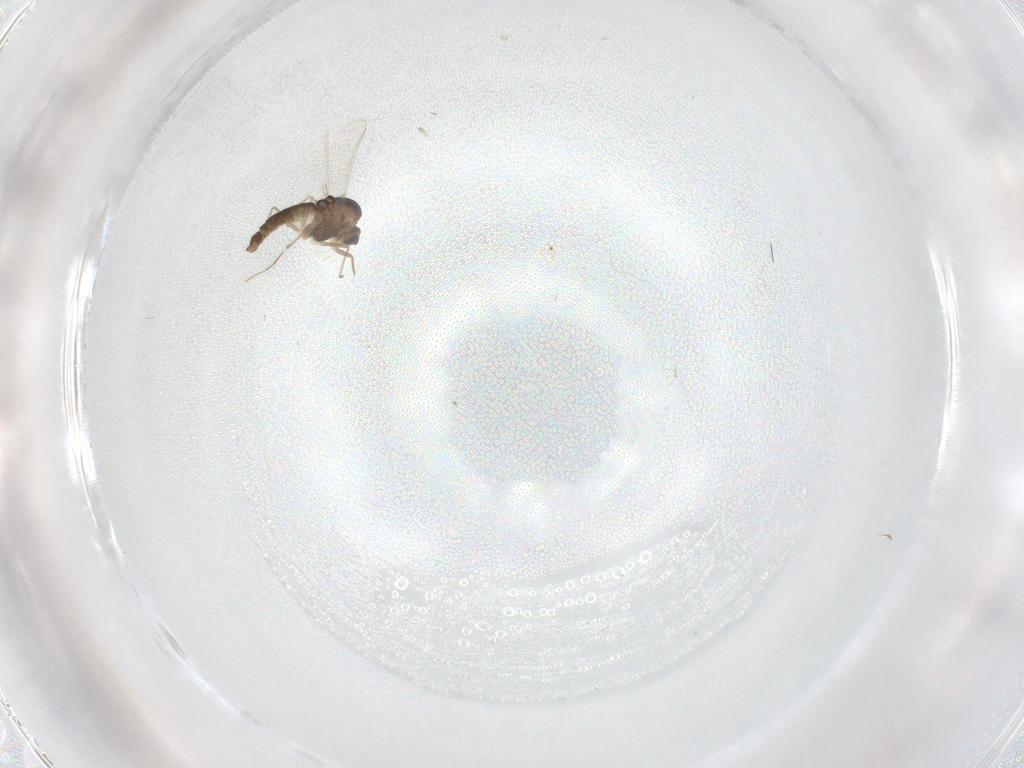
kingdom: Animalia
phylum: Arthropoda
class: Insecta
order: Diptera
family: Chironomidae
